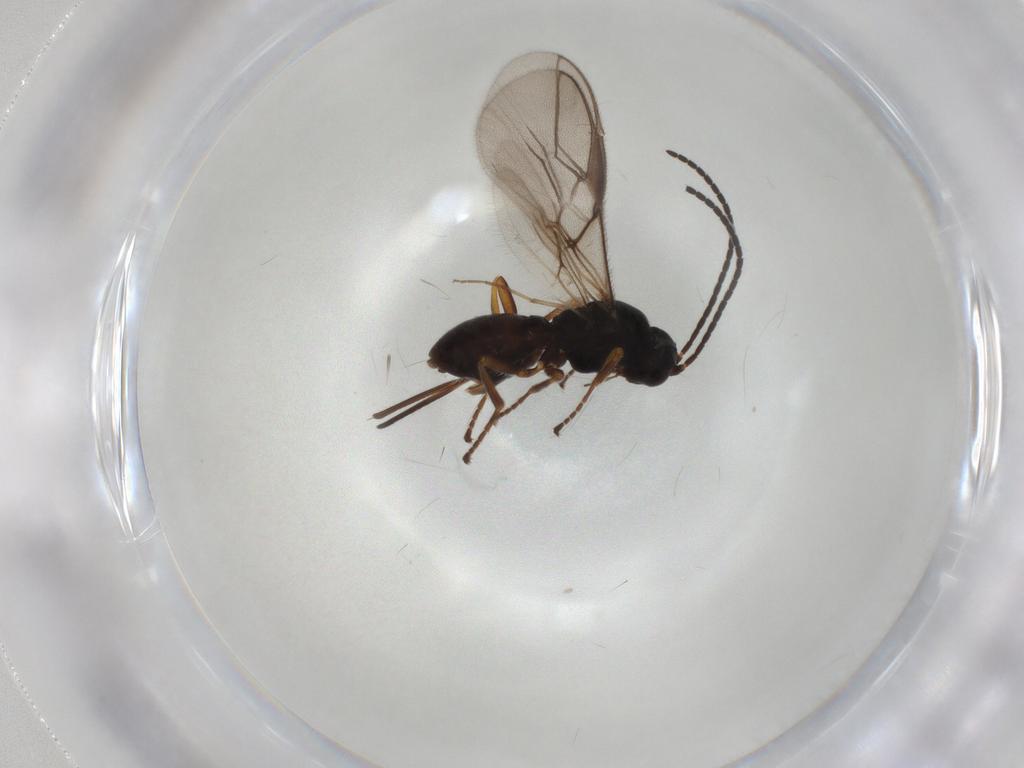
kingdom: Animalia
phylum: Arthropoda
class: Insecta
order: Hymenoptera
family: Braconidae
